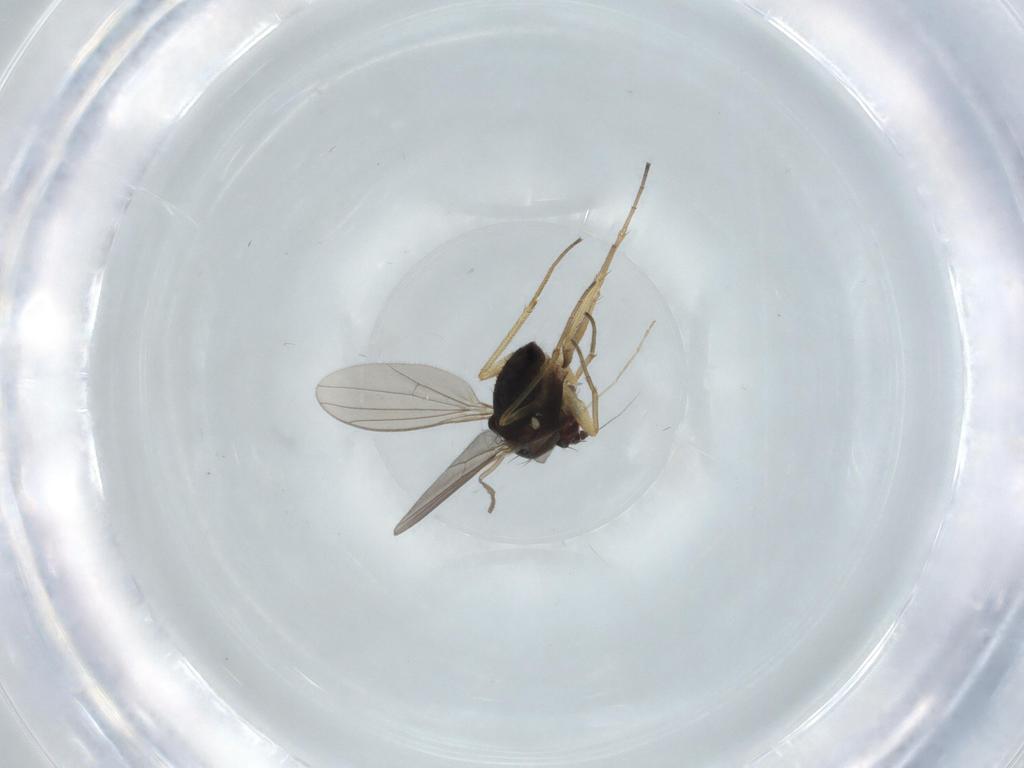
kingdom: Animalia
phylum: Arthropoda
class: Insecta
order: Diptera
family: Dolichopodidae
